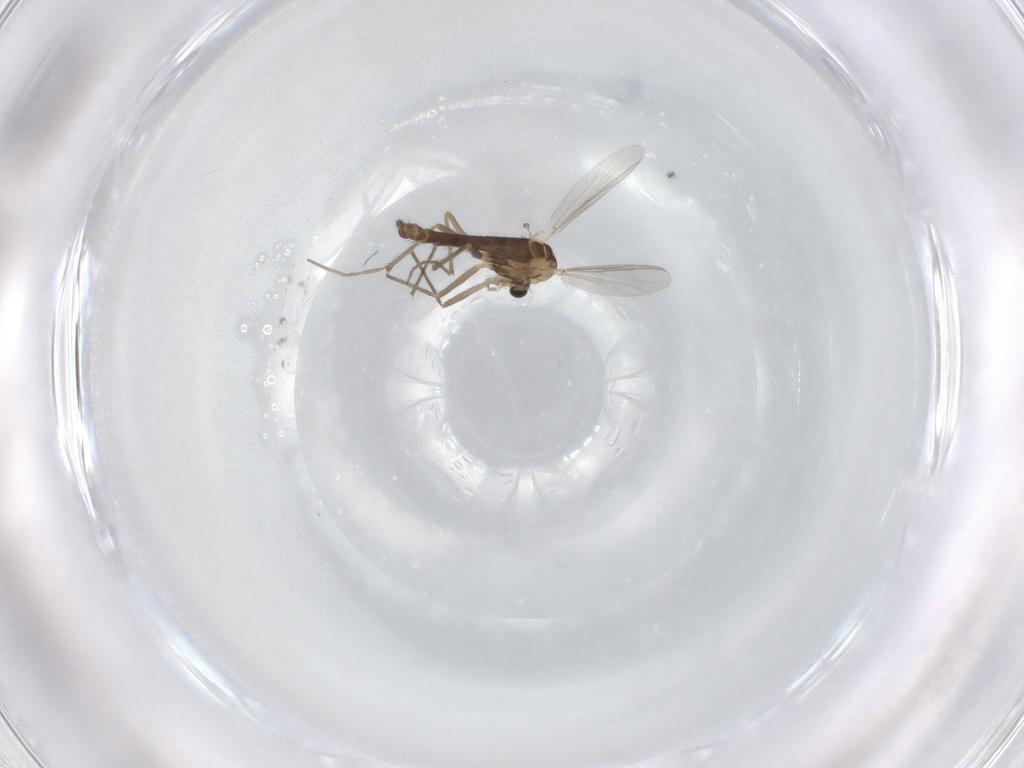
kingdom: Animalia
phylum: Arthropoda
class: Insecta
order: Diptera
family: Chironomidae
